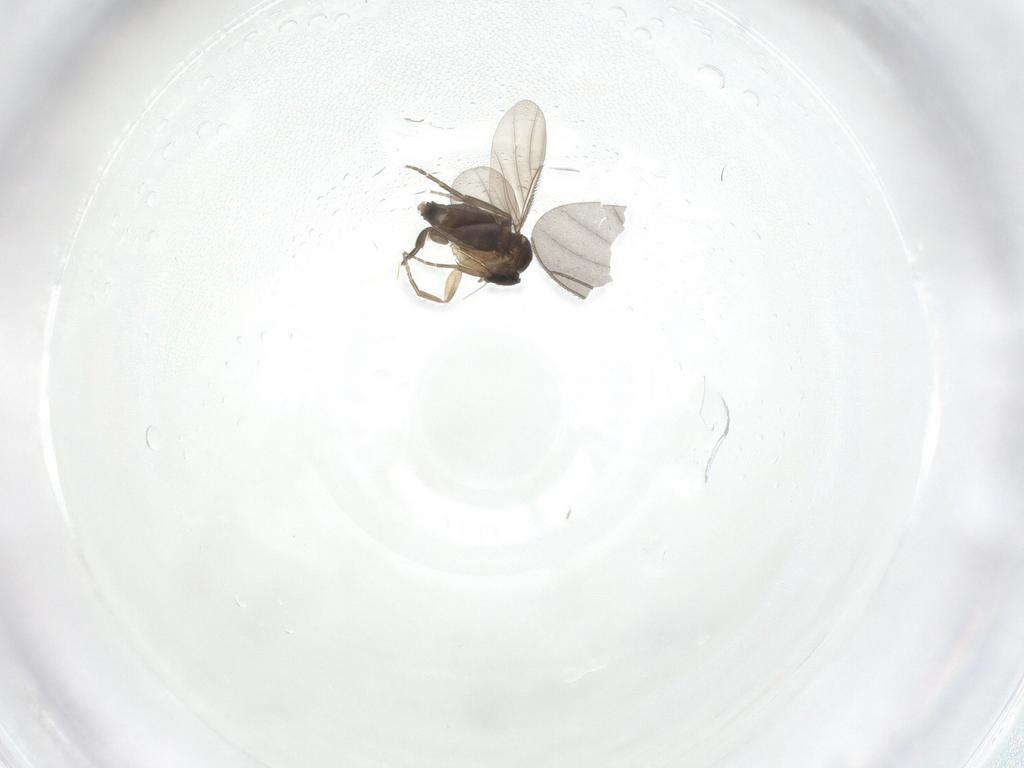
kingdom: Animalia
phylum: Arthropoda
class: Insecta
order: Diptera
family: Phoridae
